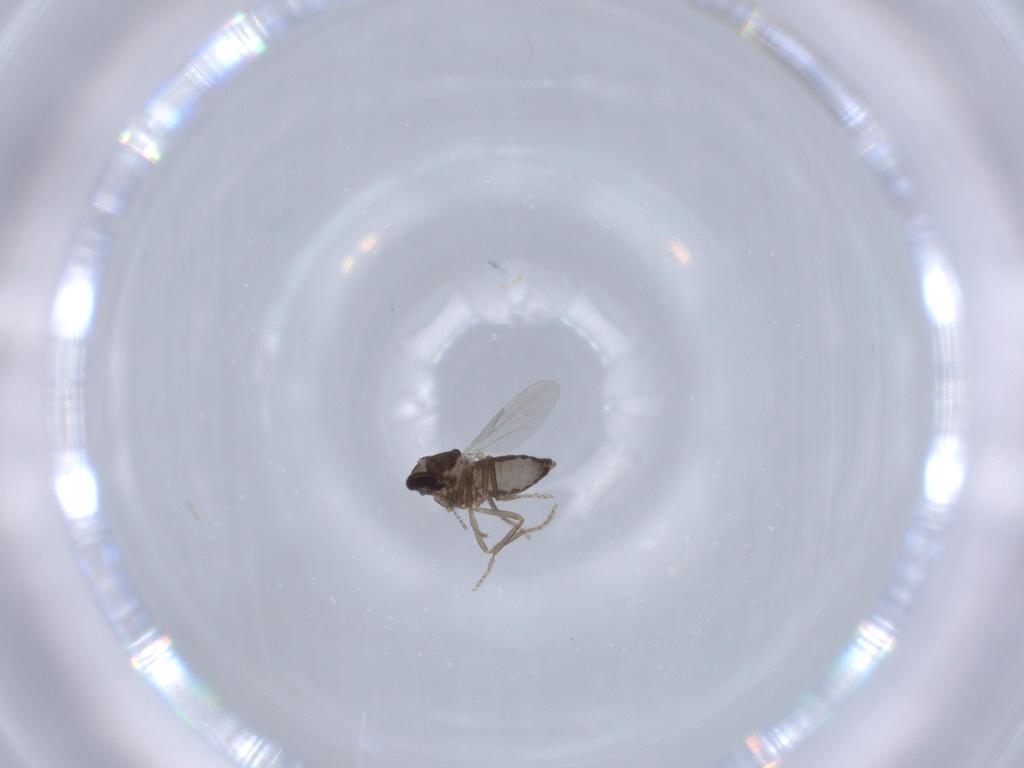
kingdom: Animalia
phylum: Arthropoda
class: Insecta
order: Diptera
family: Ceratopogonidae
